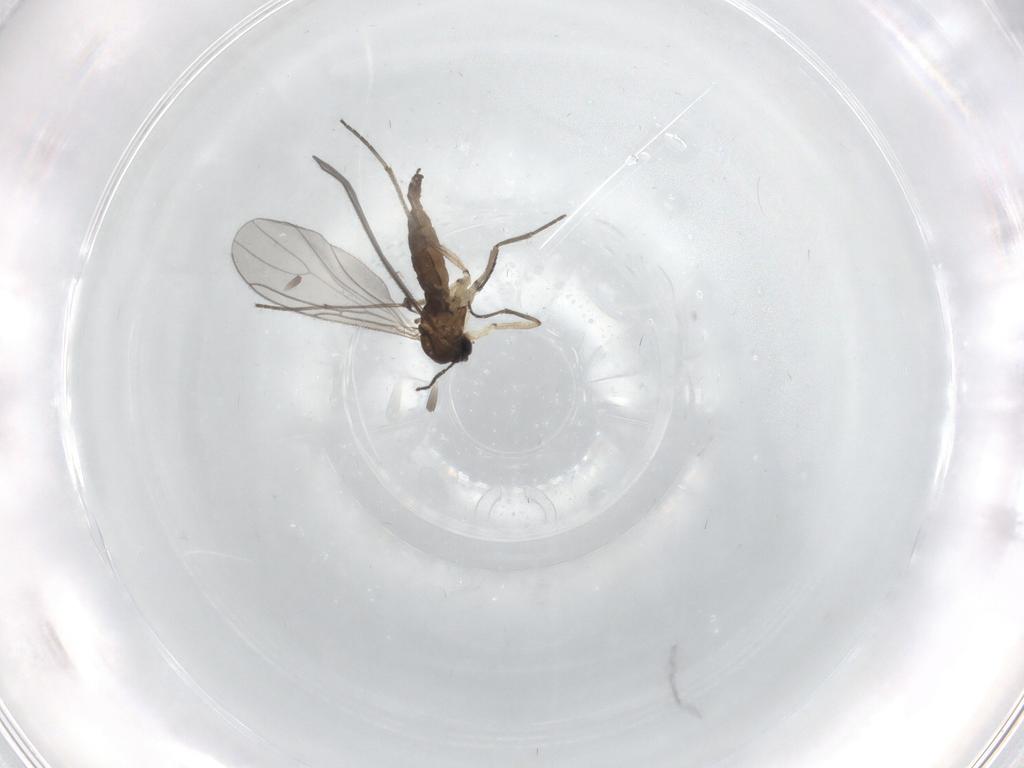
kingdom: Animalia
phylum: Arthropoda
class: Insecta
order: Diptera
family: Sciaridae
